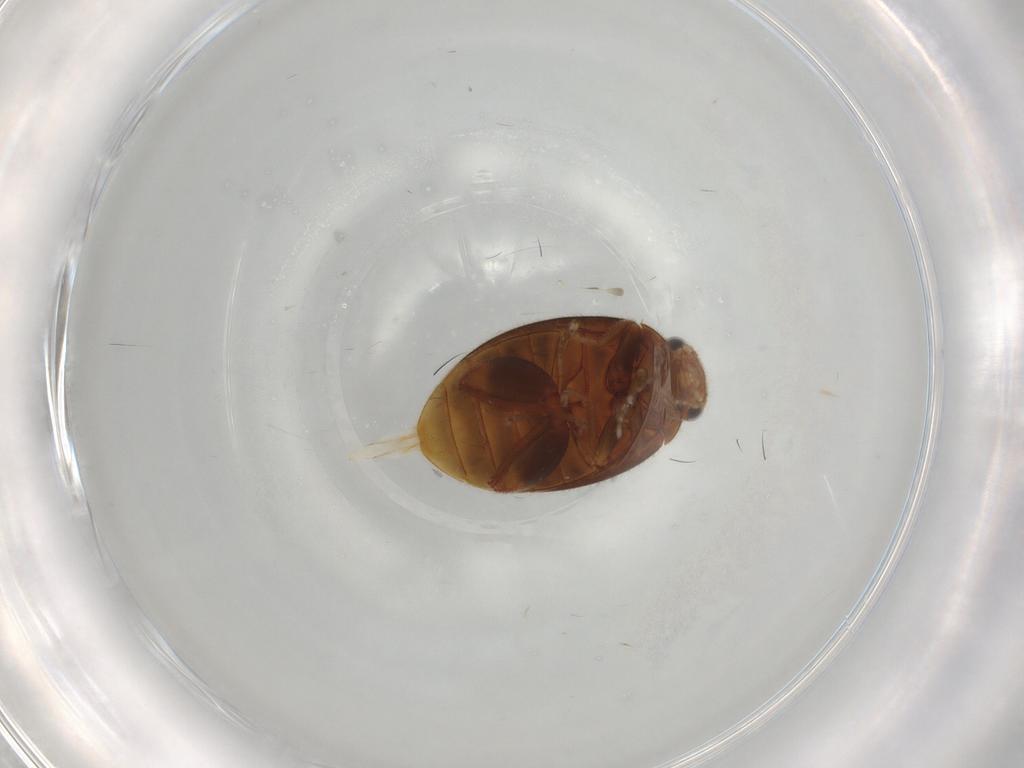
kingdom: Animalia
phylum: Arthropoda
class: Insecta
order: Coleoptera
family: Scirtidae
